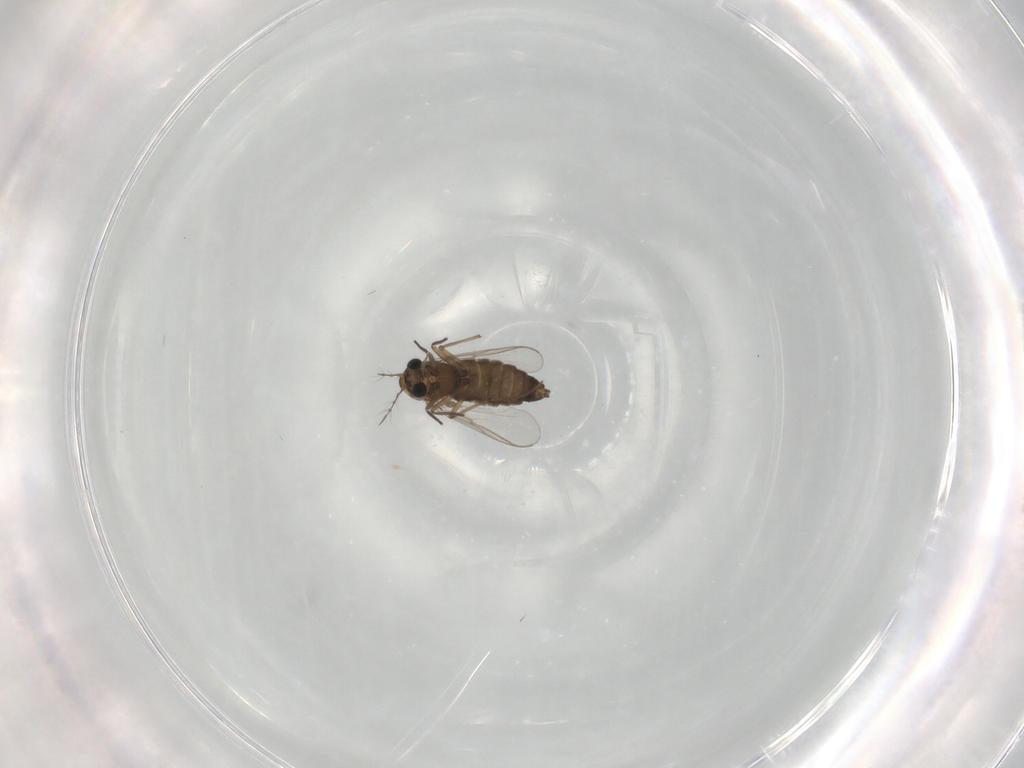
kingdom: Animalia
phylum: Arthropoda
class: Insecta
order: Diptera
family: Chironomidae
